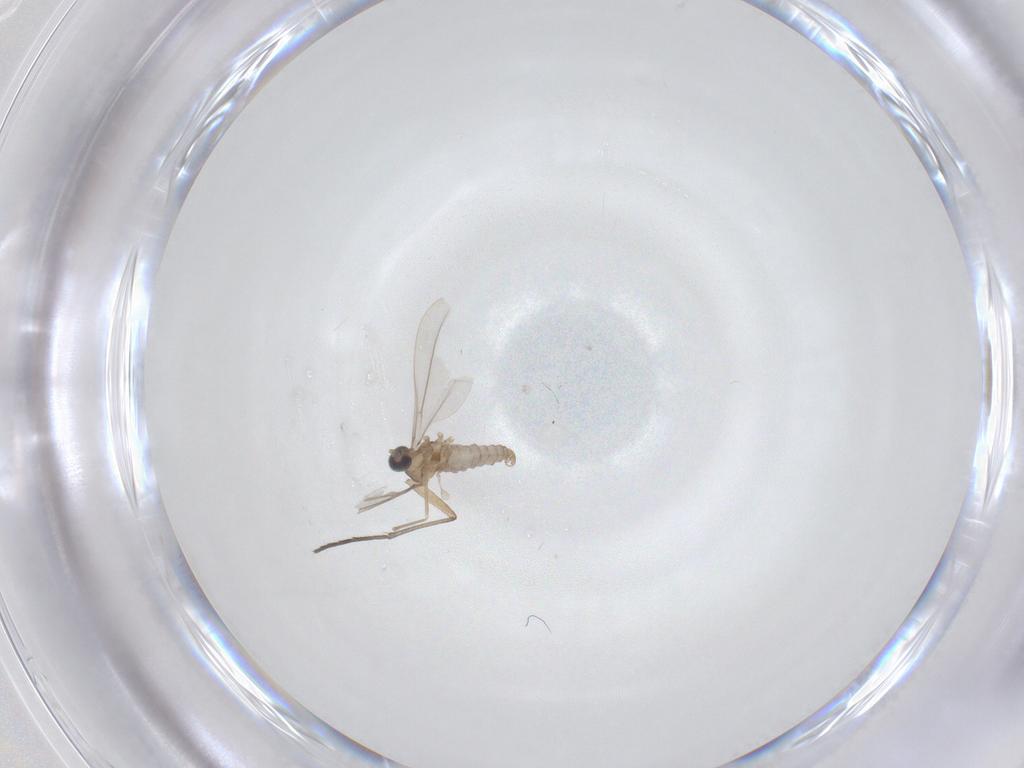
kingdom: Animalia
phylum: Arthropoda
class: Insecta
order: Diptera
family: Cecidomyiidae
